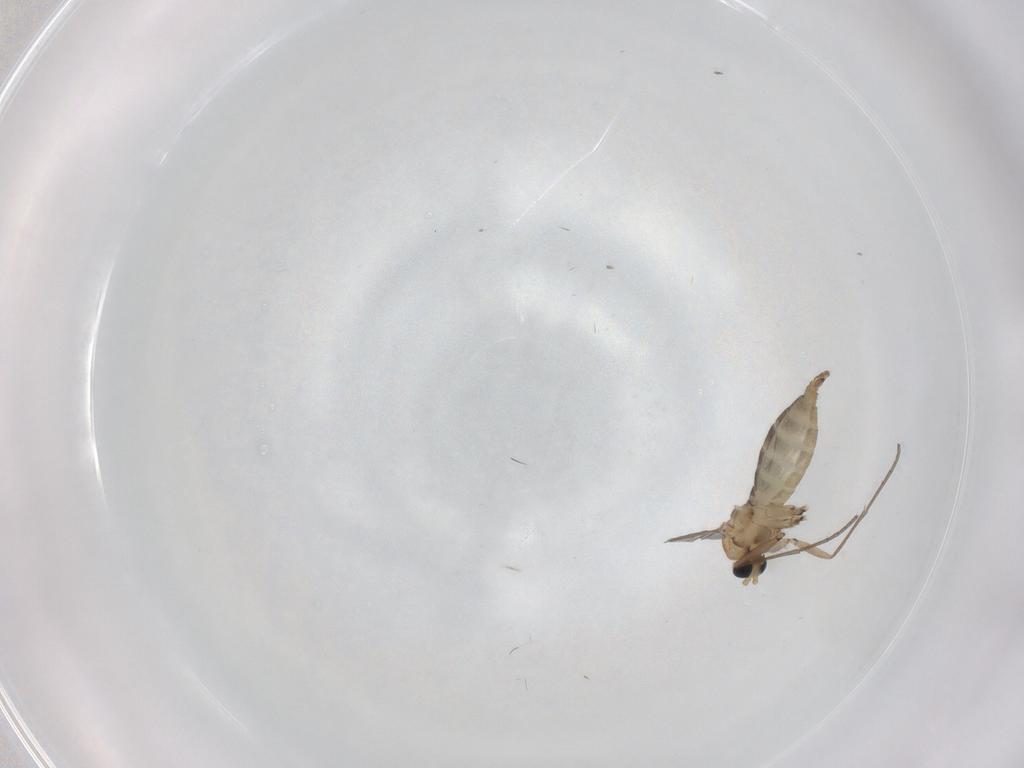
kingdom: Animalia
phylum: Arthropoda
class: Insecta
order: Diptera
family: Sciaridae
